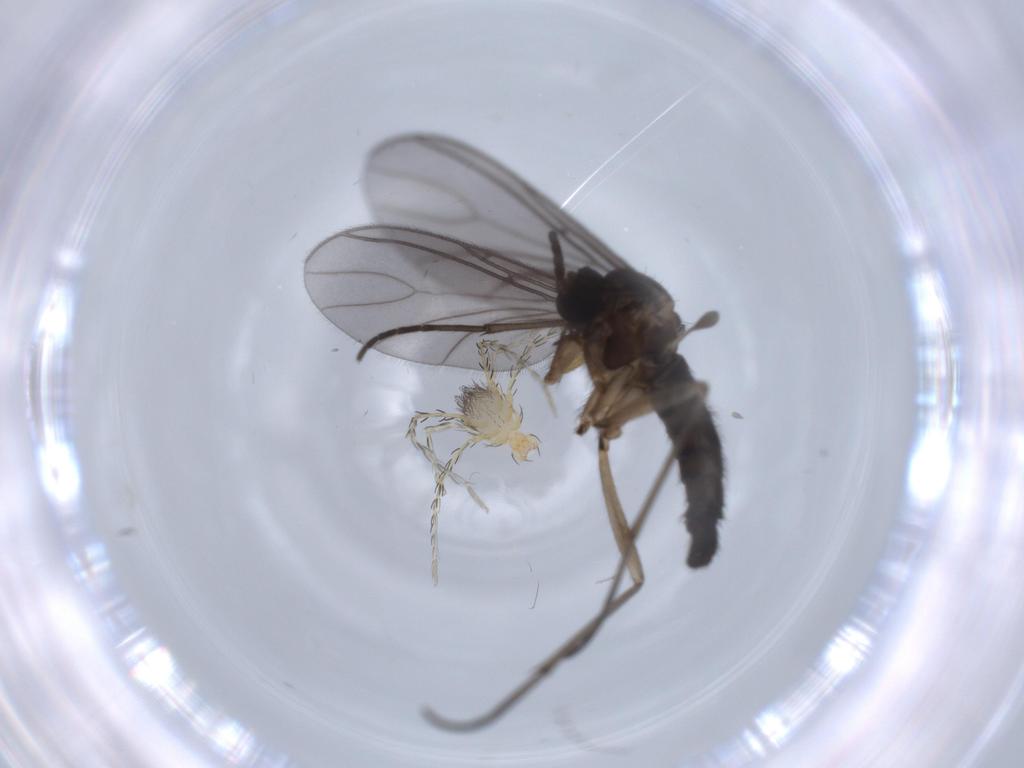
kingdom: Animalia
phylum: Arthropoda
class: Insecta
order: Diptera
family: Sciaridae
